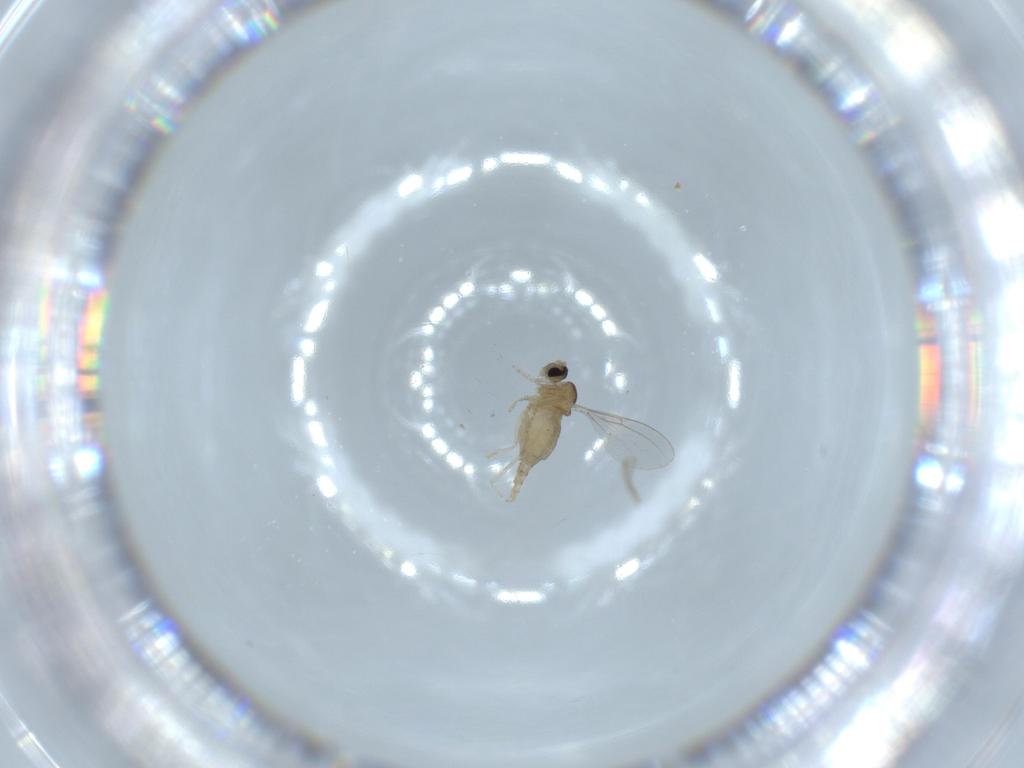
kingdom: Animalia
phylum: Arthropoda
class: Insecta
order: Diptera
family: Cecidomyiidae
